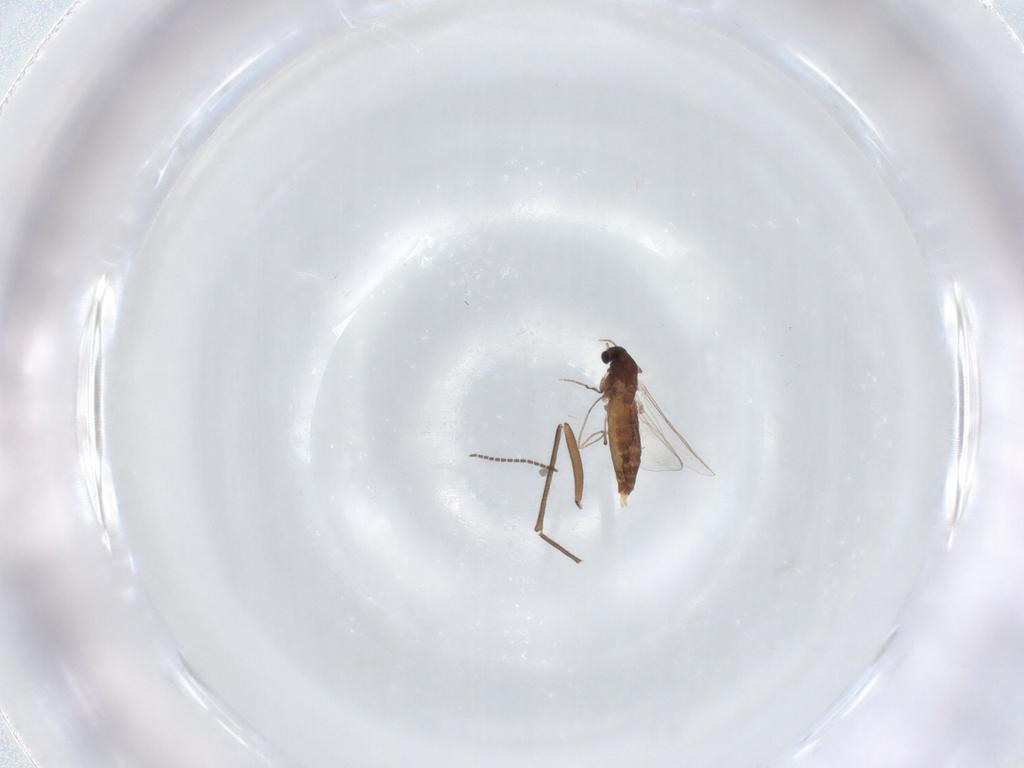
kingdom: Animalia
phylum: Arthropoda
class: Insecta
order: Diptera
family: Chironomidae
